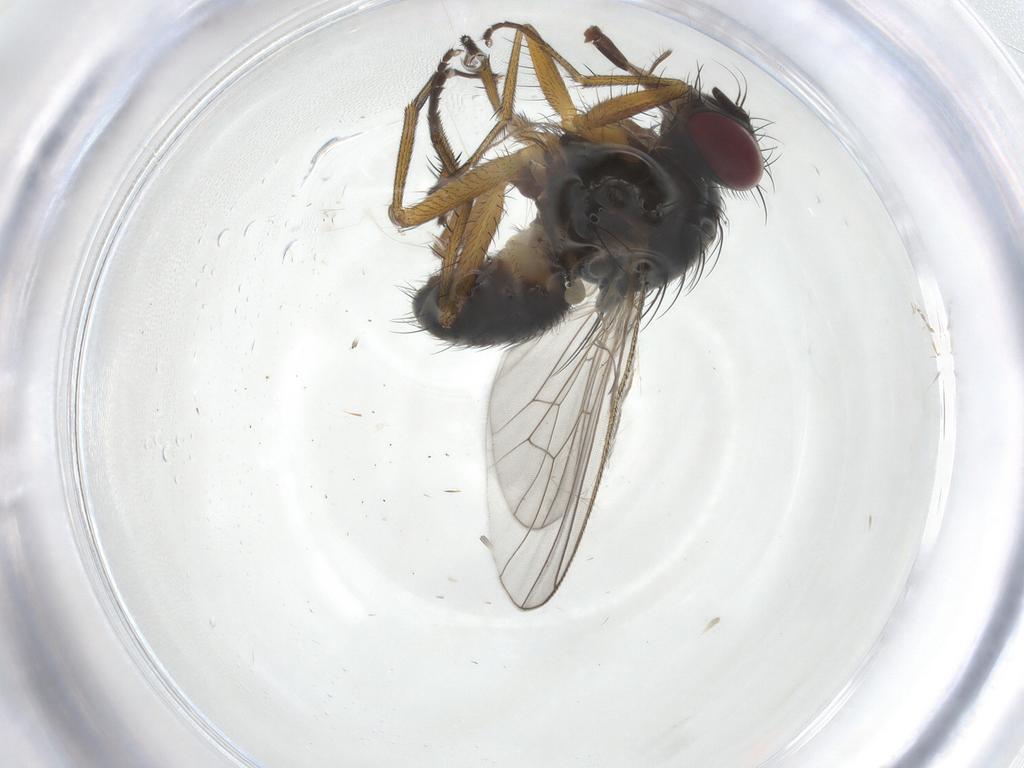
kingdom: Animalia
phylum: Arthropoda
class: Insecta
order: Diptera
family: Muscidae
